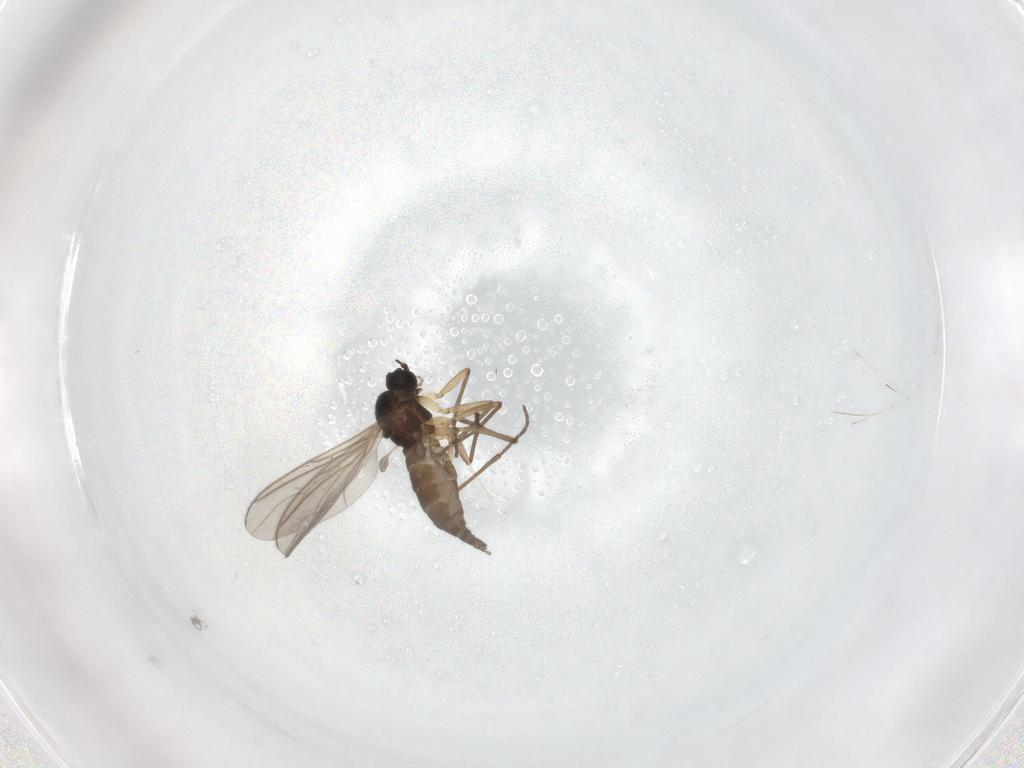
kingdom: Animalia
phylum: Arthropoda
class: Insecta
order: Diptera
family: Sciaridae
